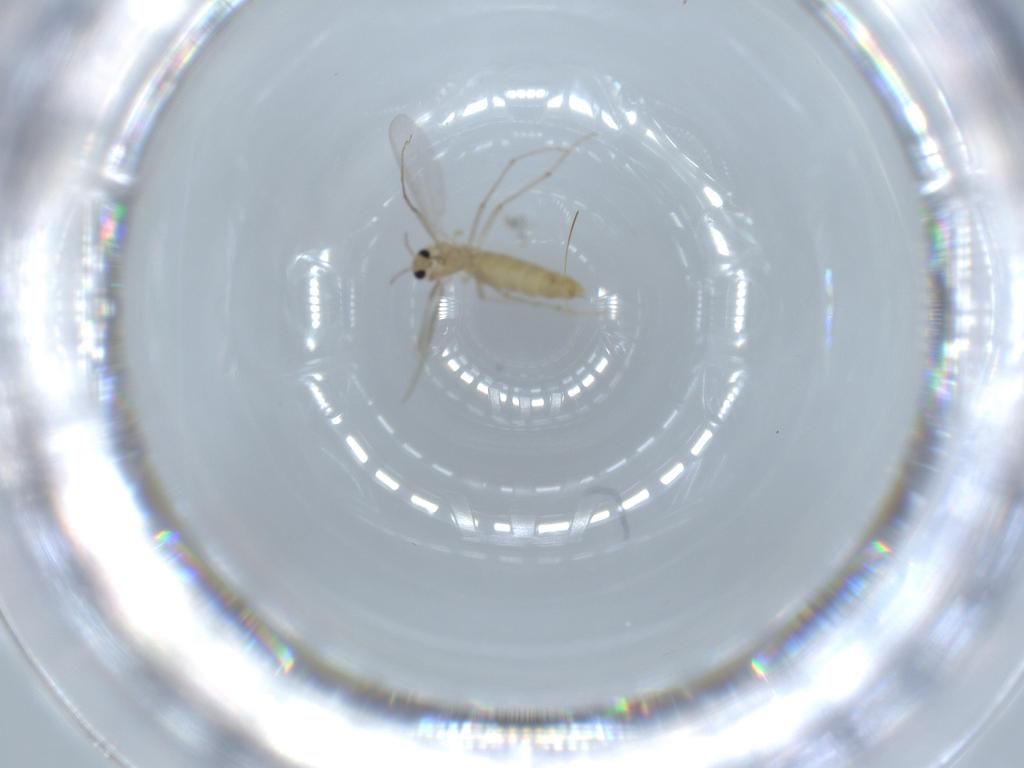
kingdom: Animalia
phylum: Arthropoda
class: Insecta
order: Diptera
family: Chironomidae
